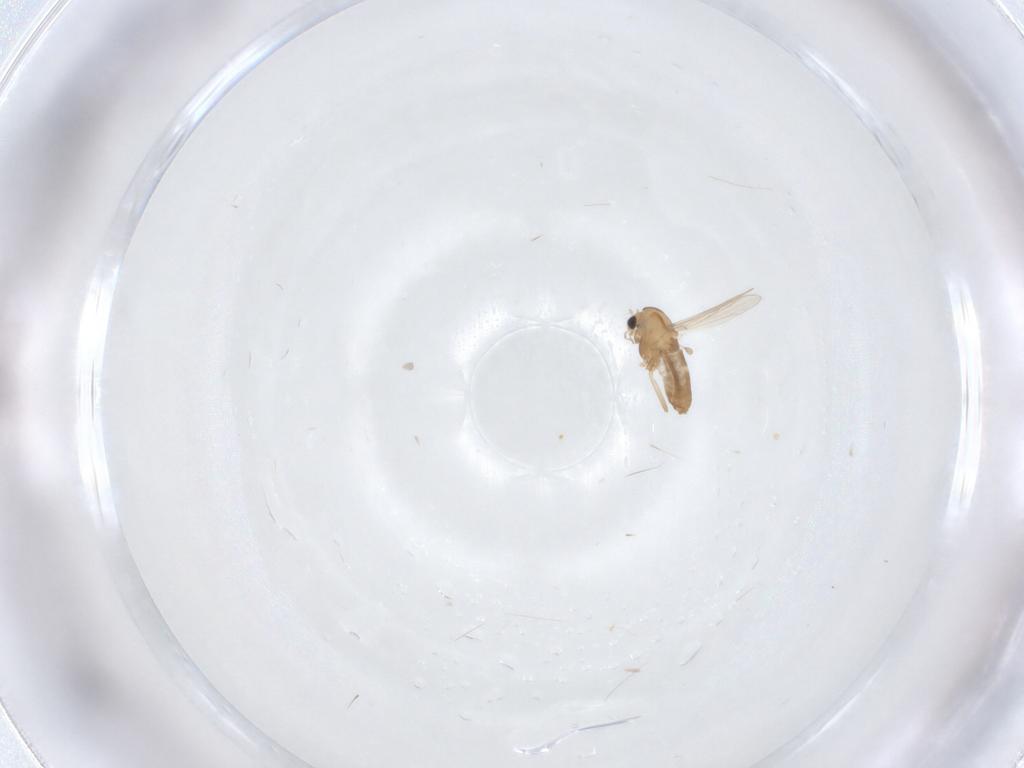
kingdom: Animalia
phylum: Arthropoda
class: Insecta
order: Diptera
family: Chironomidae
